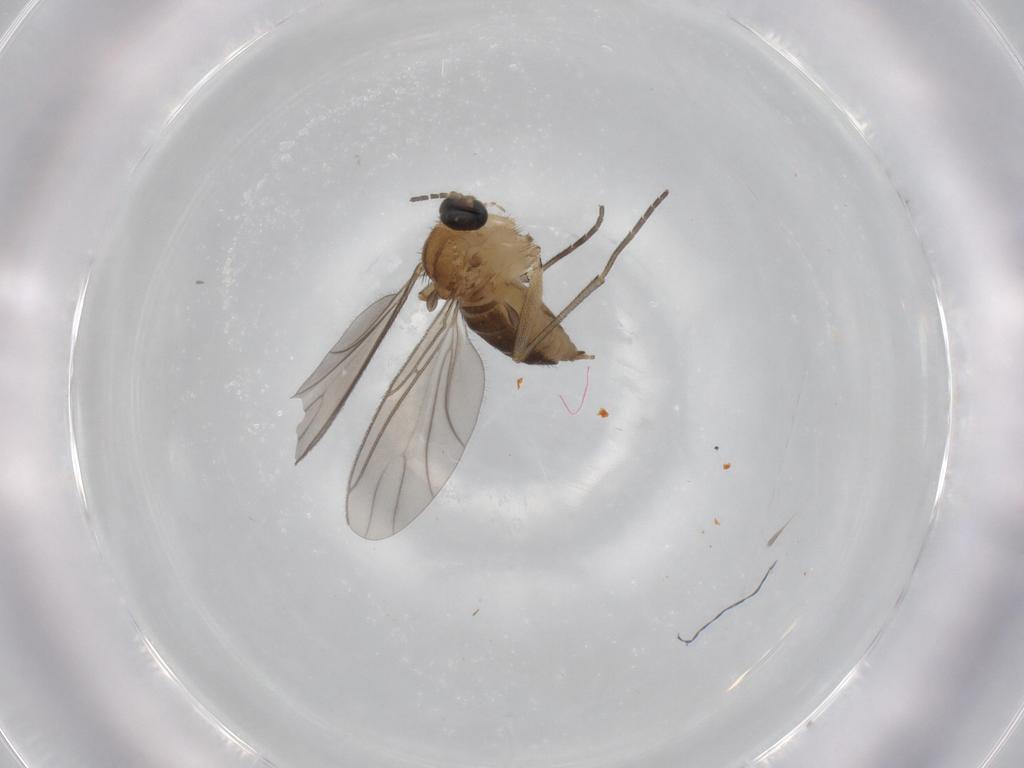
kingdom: Animalia
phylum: Arthropoda
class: Insecta
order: Diptera
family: Sciaridae
